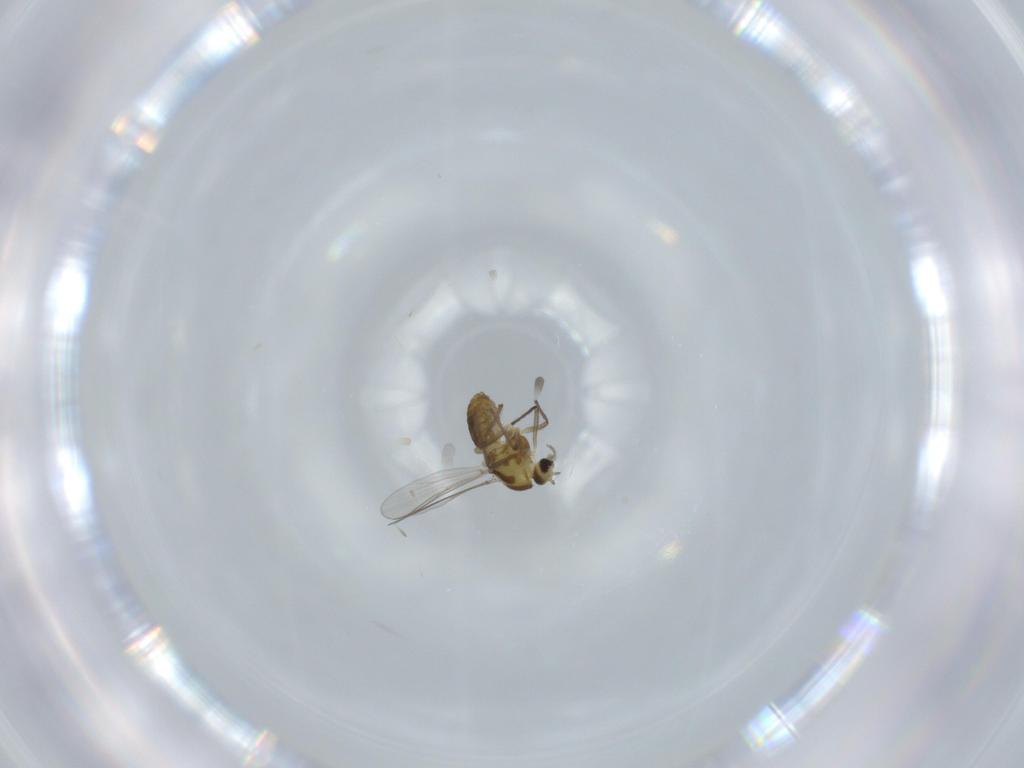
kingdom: Animalia
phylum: Arthropoda
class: Insecta
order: Diptera
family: Chironomidae
